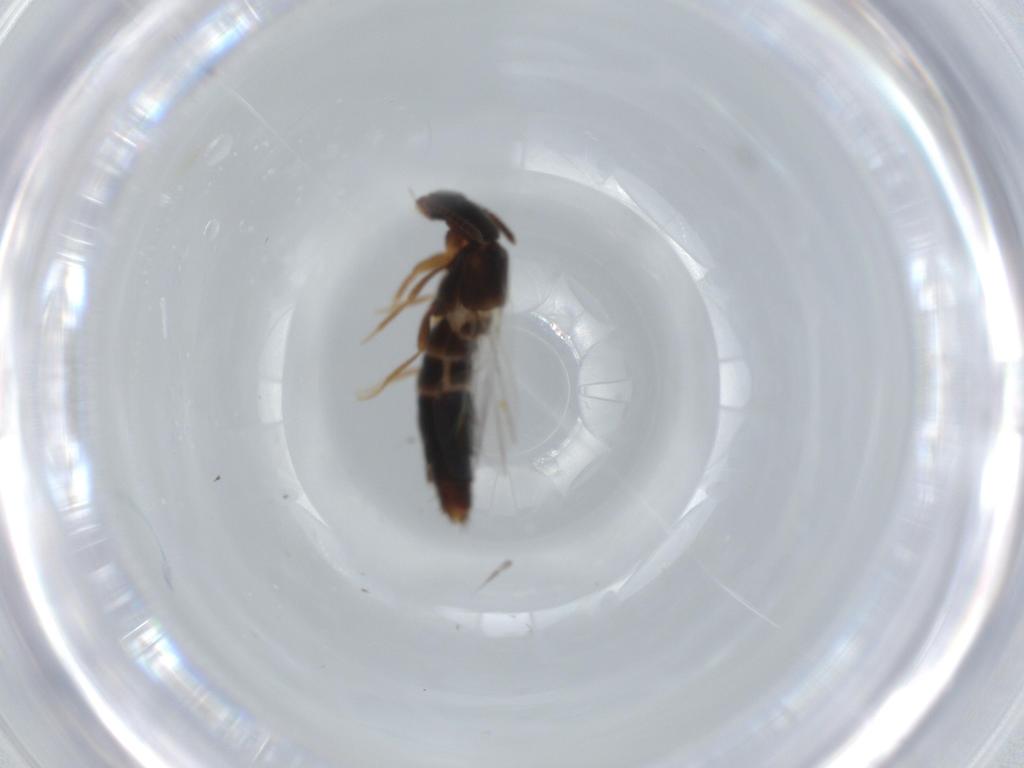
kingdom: Animalia
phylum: Arthropoda
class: Insecta
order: Coleoptera
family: Staphylinidae
